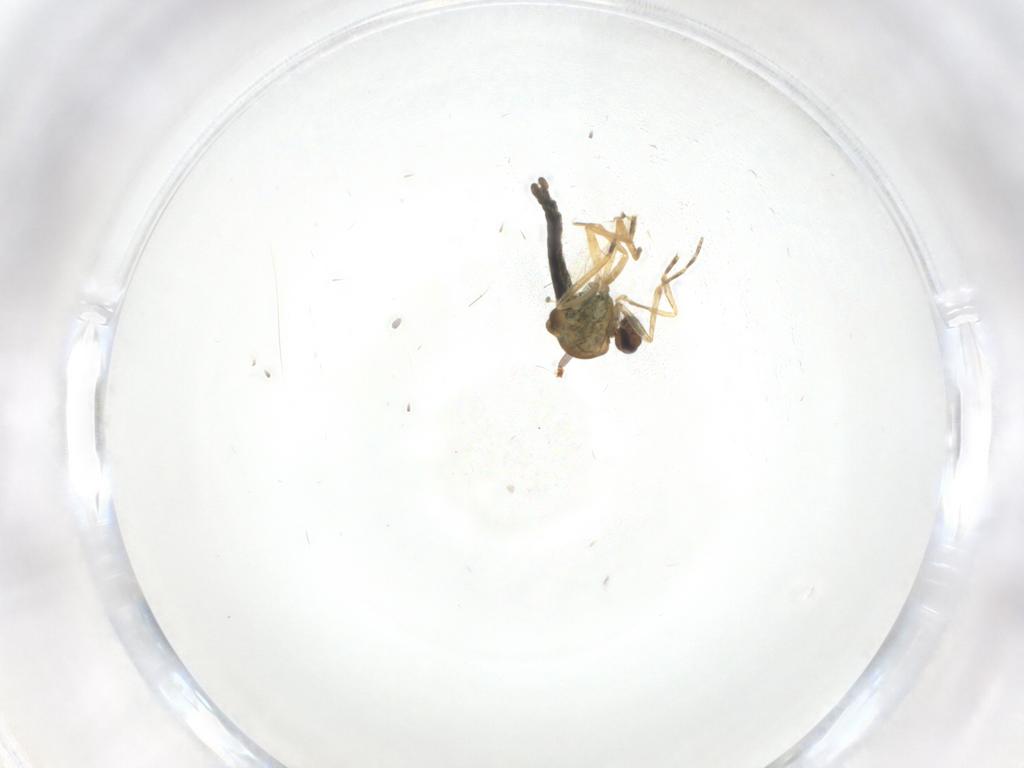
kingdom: Animalia
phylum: Arthropoda
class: Insecta
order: Diptera
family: Ceratopogonidae
